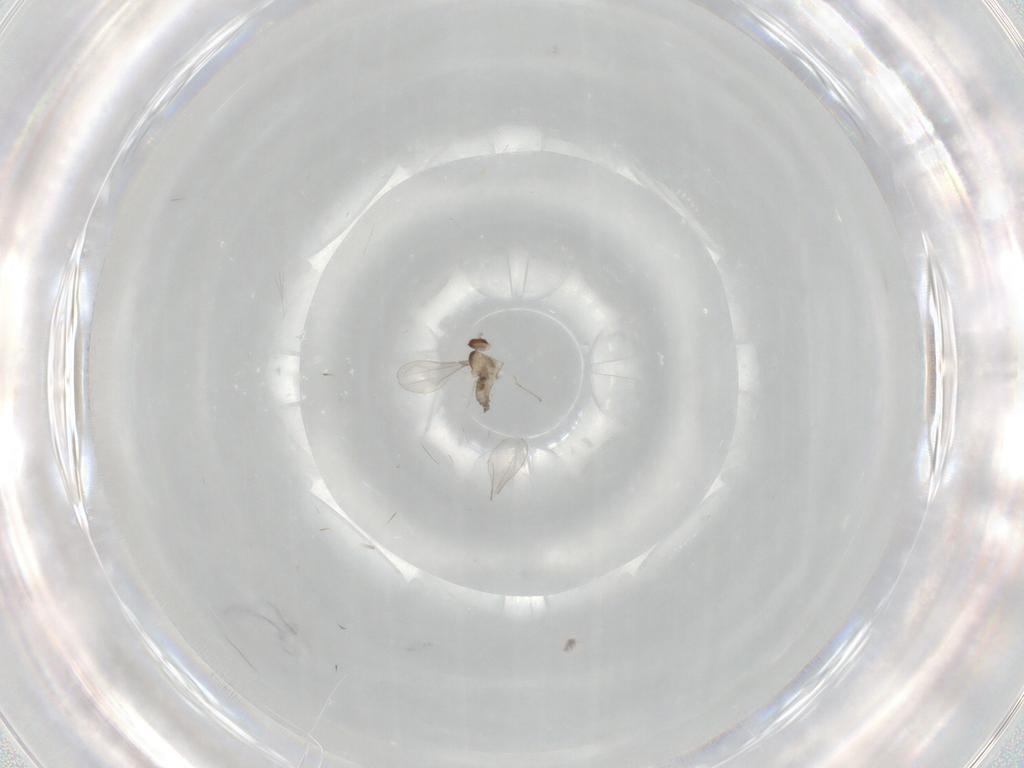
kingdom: Animalia
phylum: Arthropoda
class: Insecta
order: Diptera
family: Cecidomyiidae
